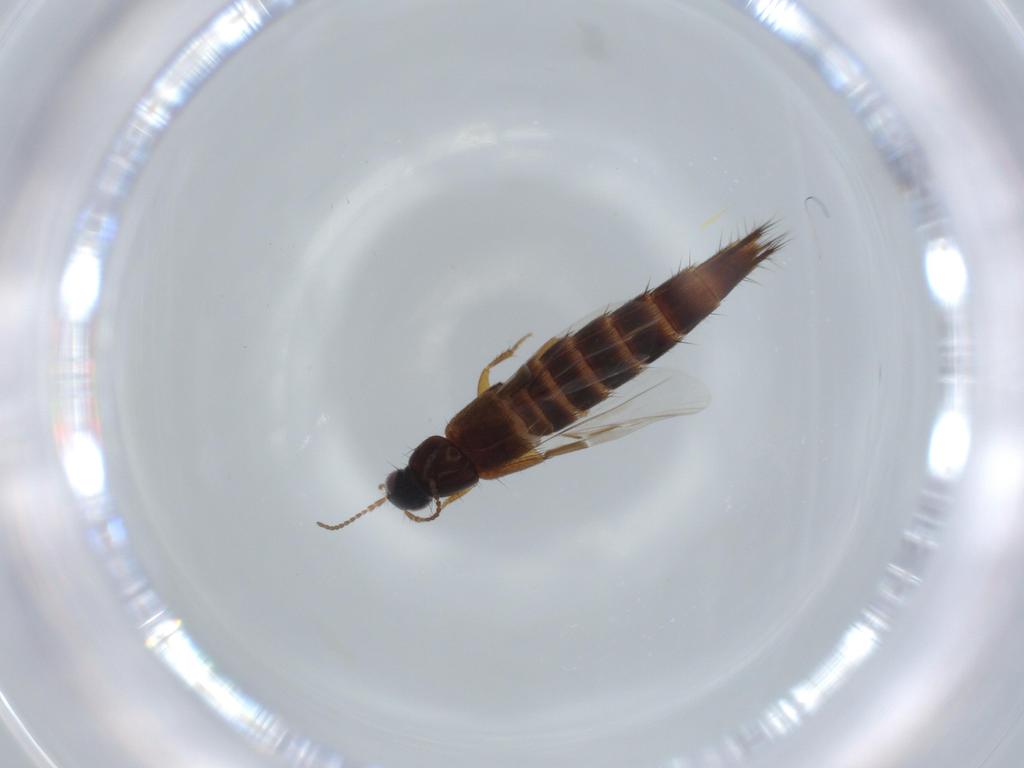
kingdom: Animalia
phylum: Arthropoda
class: Insecta
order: Coleoptera
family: Staphylinidae
